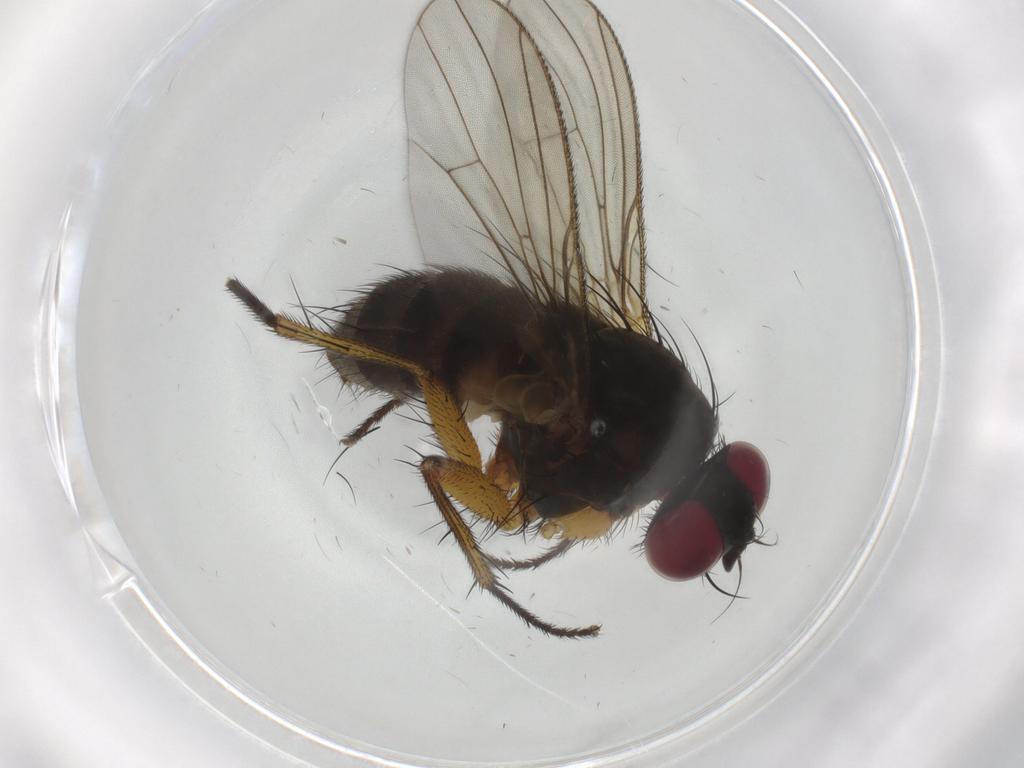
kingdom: Animalia
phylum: Arthropoda
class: Insecta
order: Diptera
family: Muscidae
